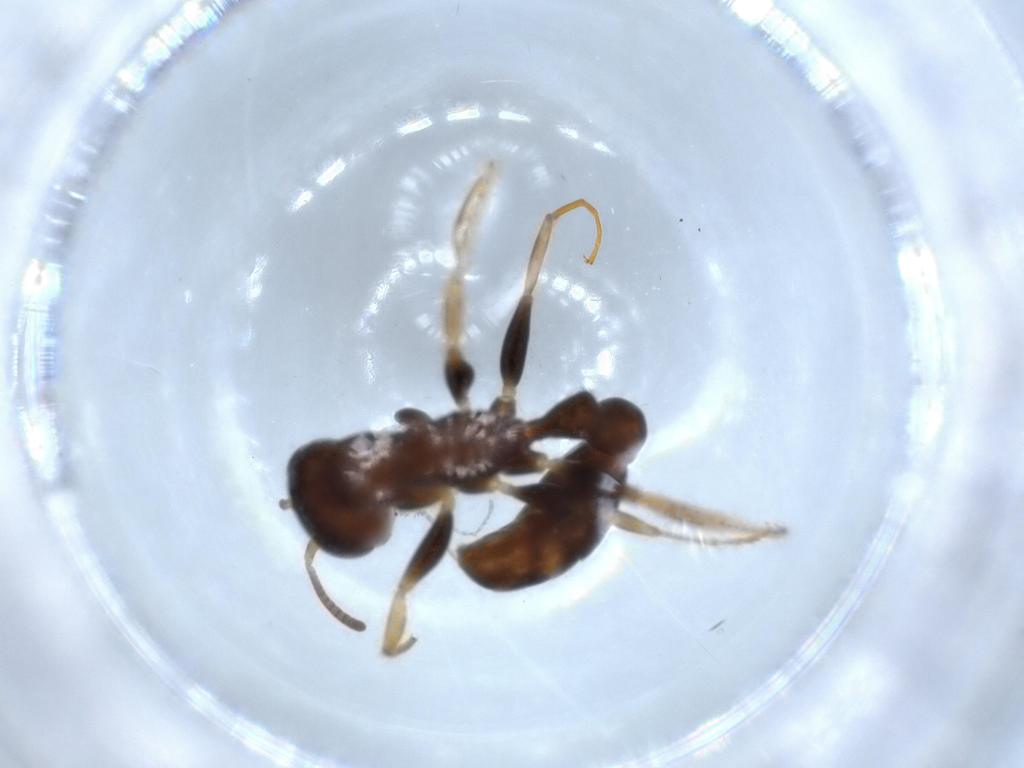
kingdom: Animalia
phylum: Arthropoda
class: Insecta
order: Hymenoptera
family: Formicidae
